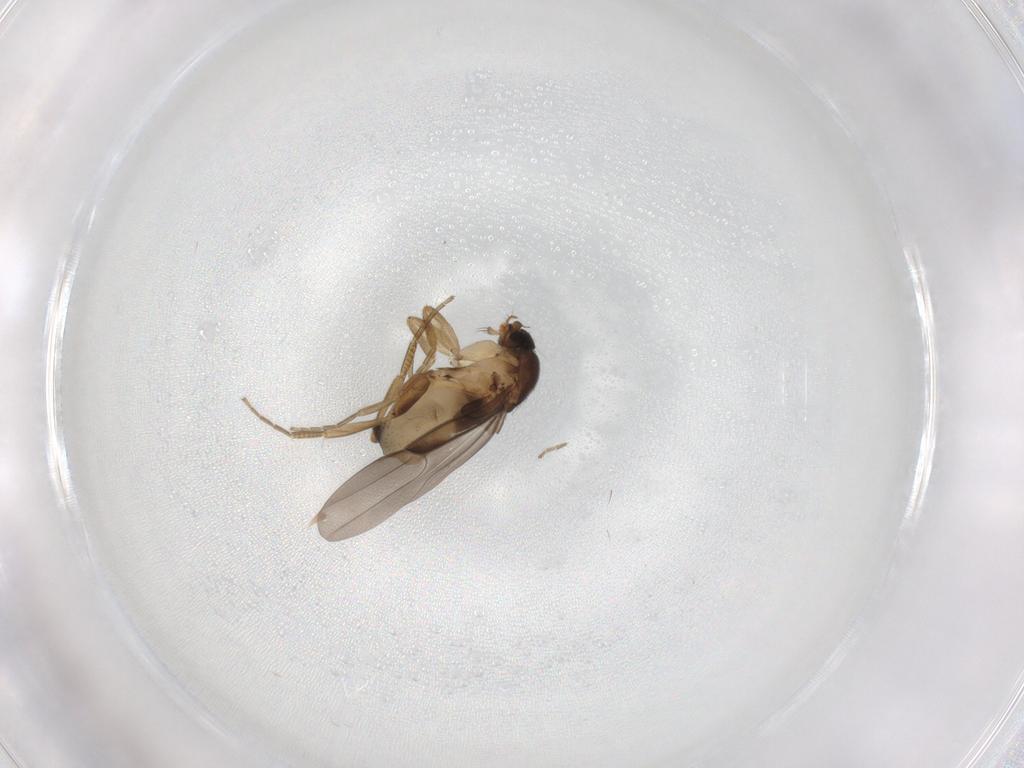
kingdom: Animalia
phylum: Arthropoda
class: Insecta
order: Diptera
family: Phoridae
